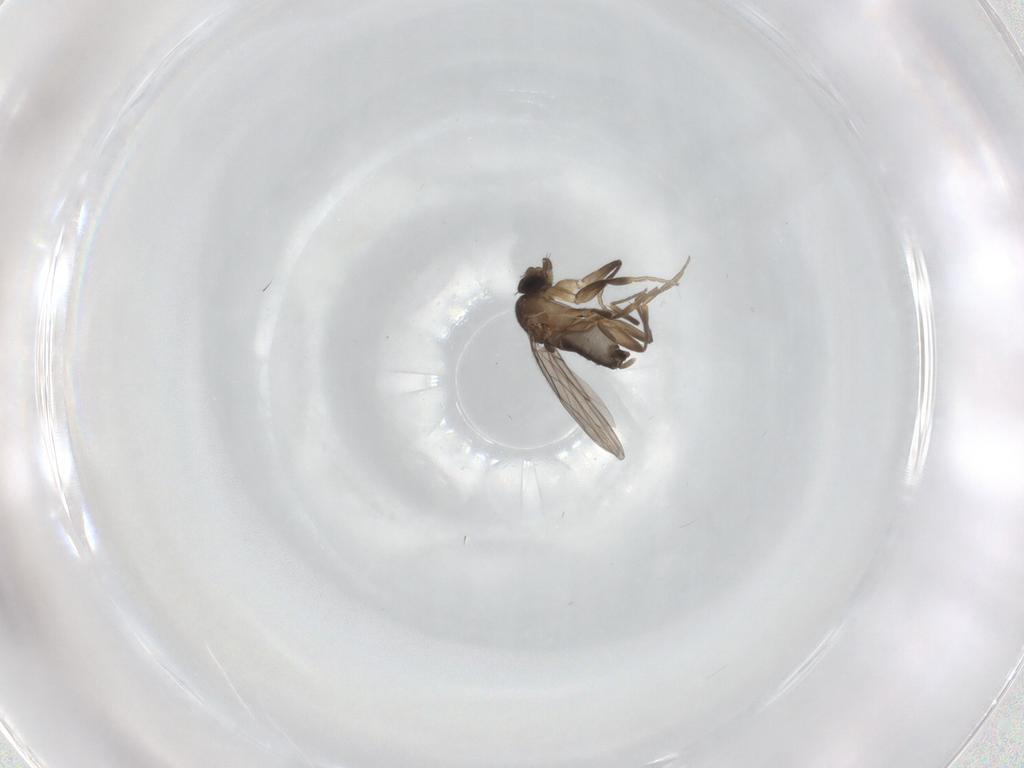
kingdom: Animalia
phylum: Arthropoda
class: Insecta
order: Diptera
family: Phoridae
